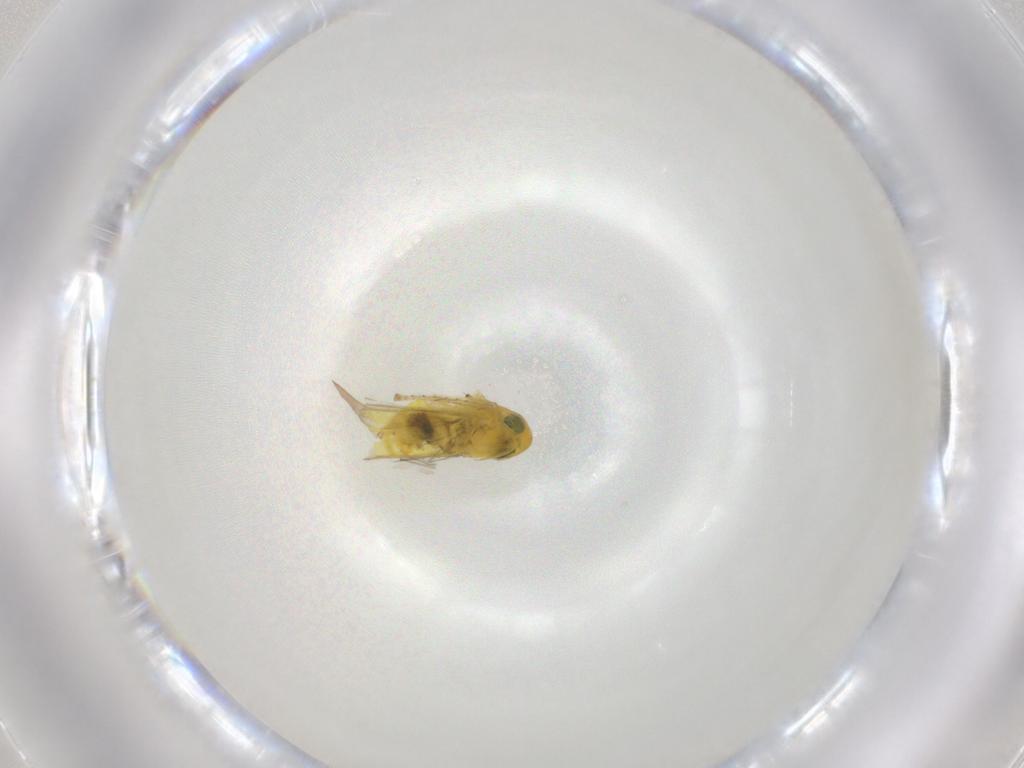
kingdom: Animalia
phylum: Arthropoda
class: Insecta
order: Hemiptera
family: Cicadellidae
